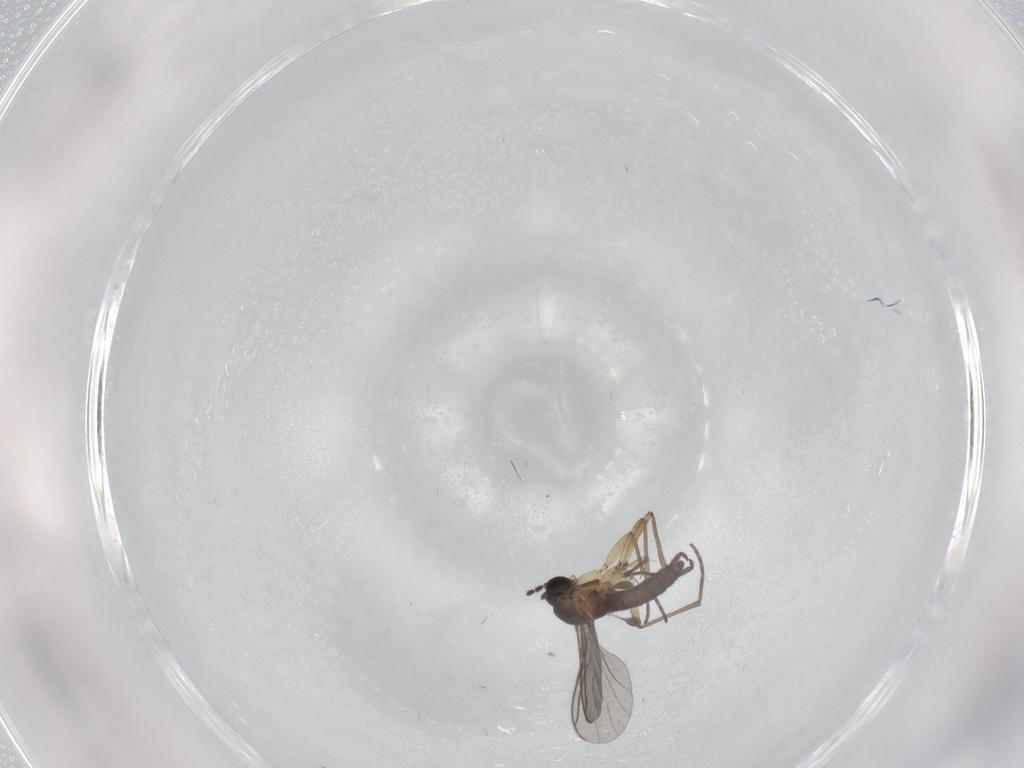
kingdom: Animalia
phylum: Arthropoda
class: Insecta
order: Diptera
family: Sciaridae
